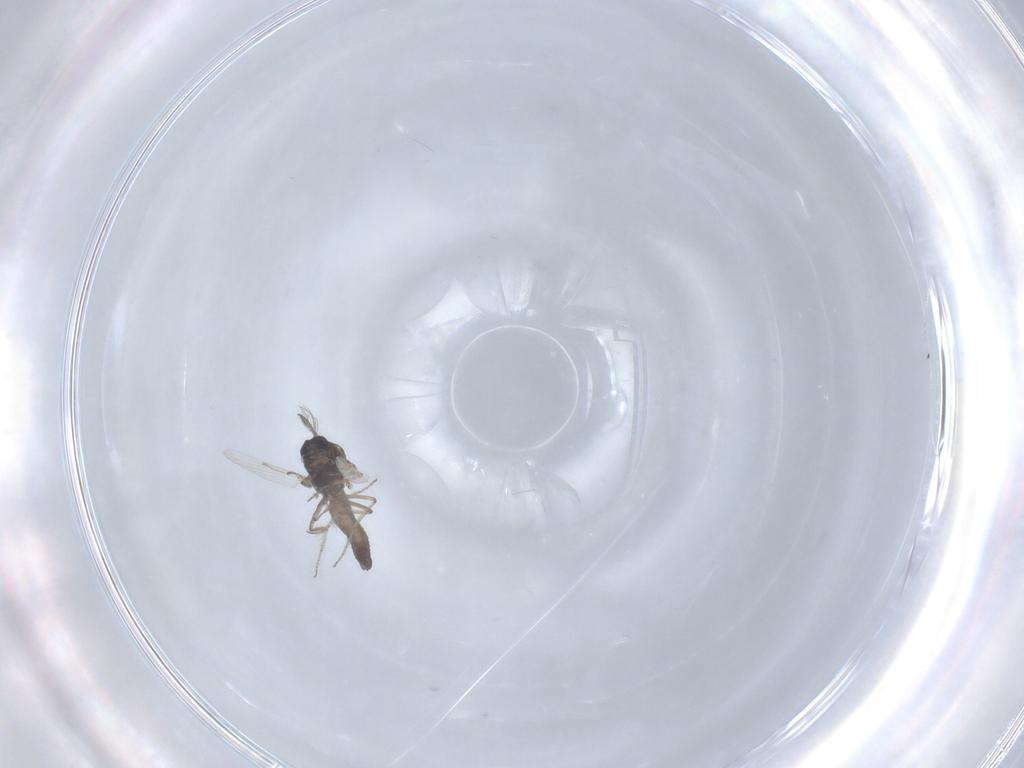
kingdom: Animalia
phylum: Arthropoda
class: Insecta
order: Diptera
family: Ceratopogonidae
